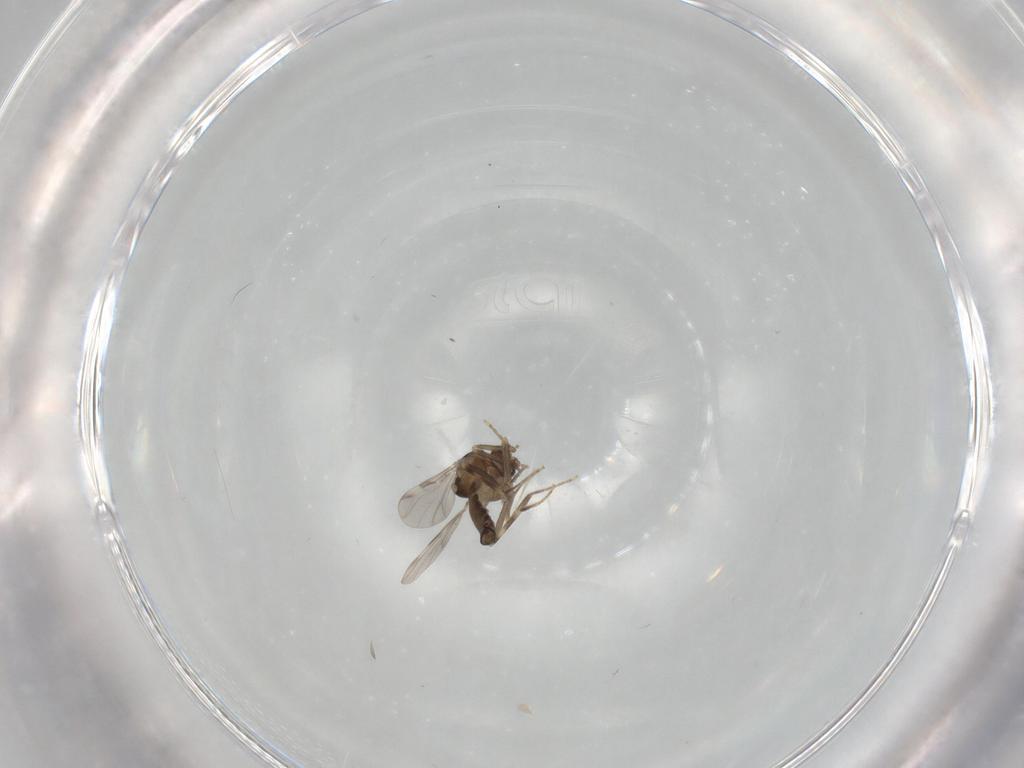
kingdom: Animalia
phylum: Arthropoda
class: Insecta
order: Diptera
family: Ceratopogonidae
